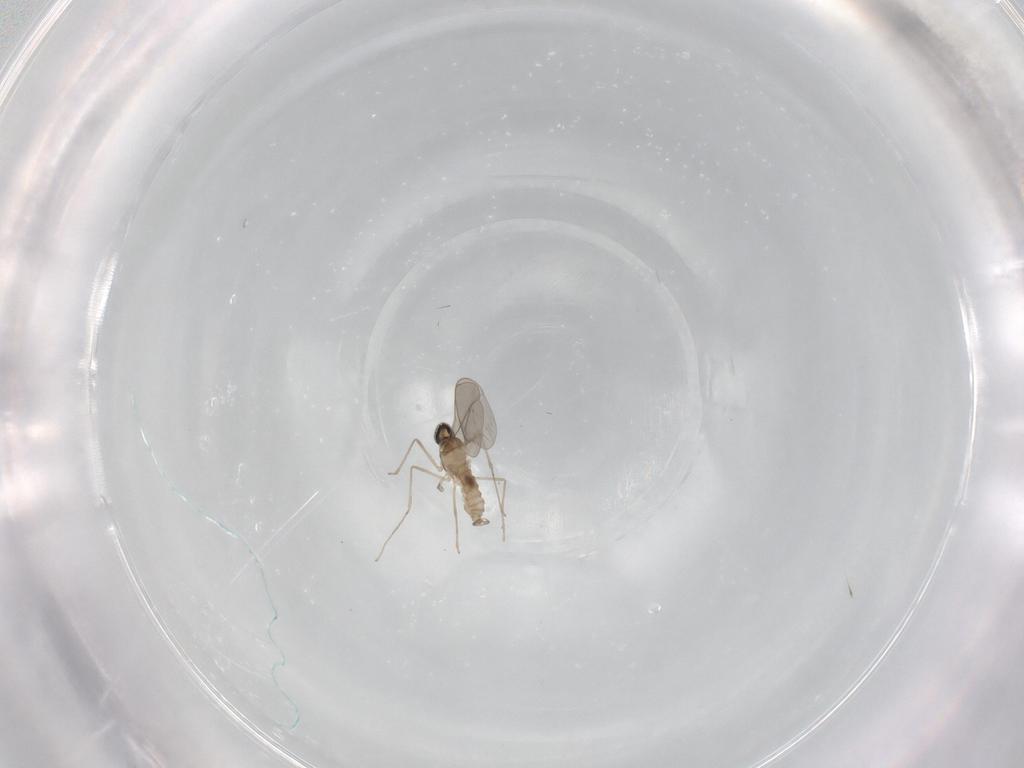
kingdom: Animalia
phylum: Arthropoda
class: Insecta
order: Diptera
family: Cecidomyiidae
